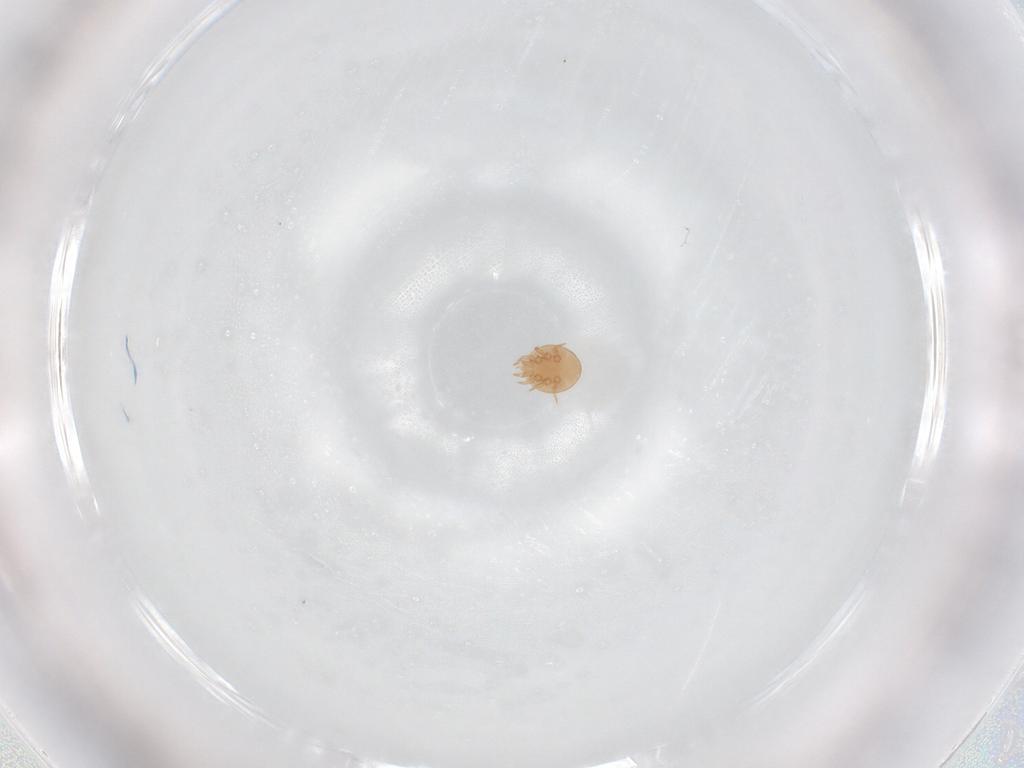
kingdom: Animalia
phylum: Arthropoda
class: Arachnida
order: Mesostigmata
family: Trematuridae
